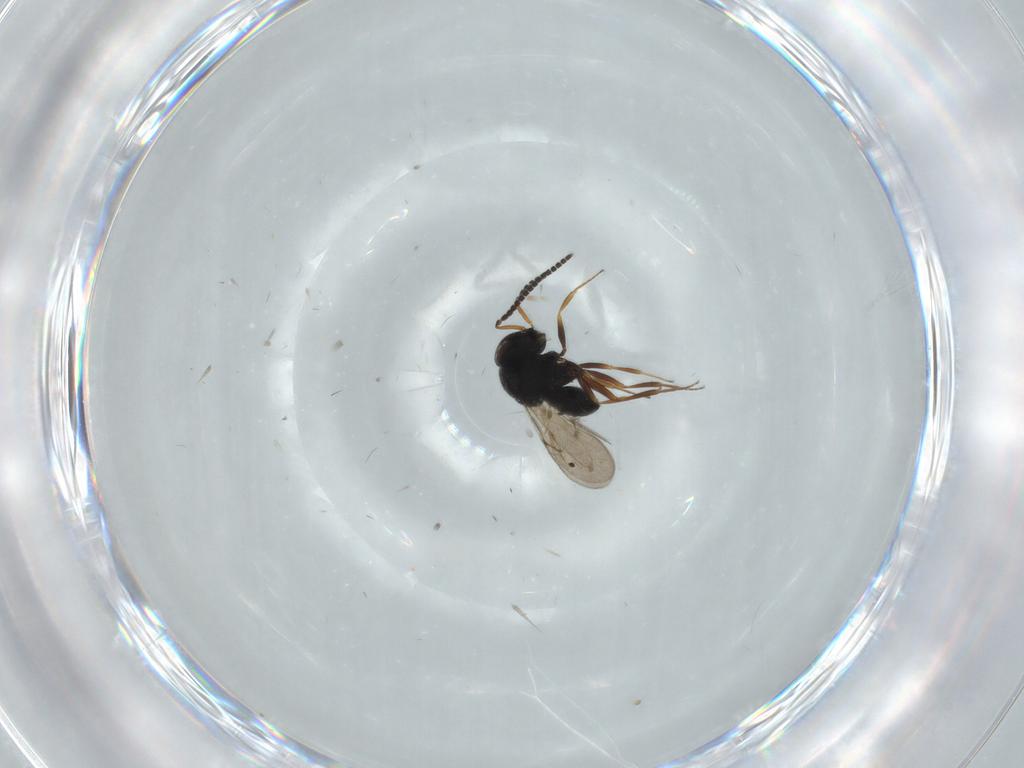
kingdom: Animalia
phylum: Arthropoda
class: Insecta
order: Hymenoptera
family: Scelionidae
